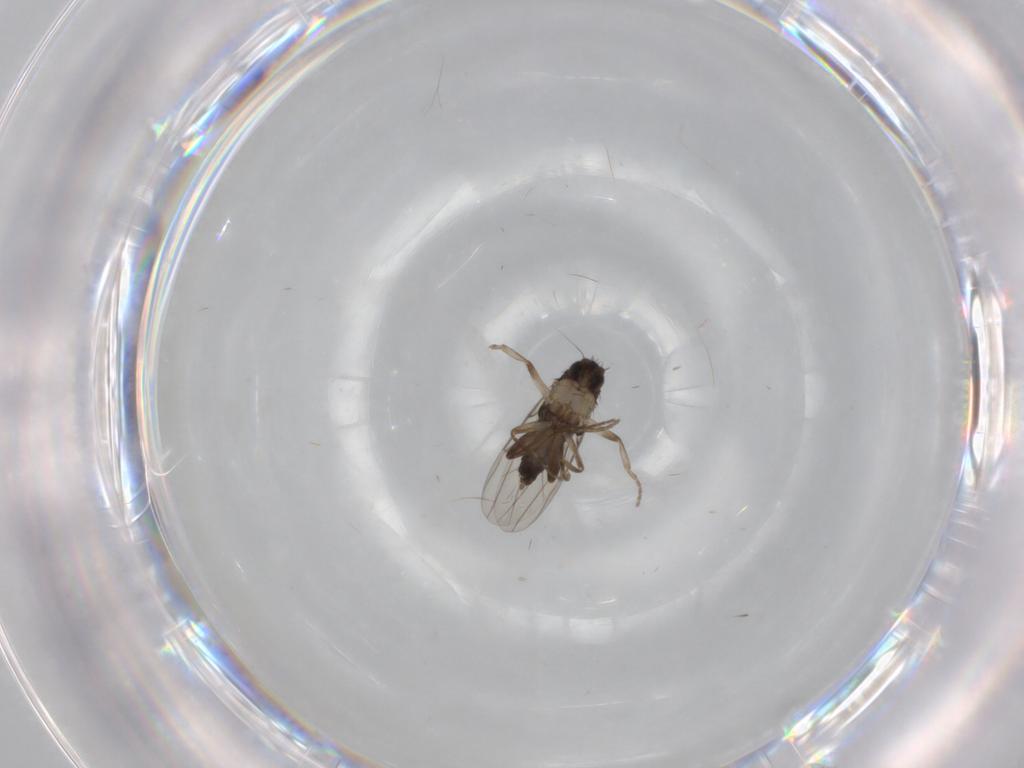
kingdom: Animalia
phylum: Arthropoda
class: Insecta
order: Diptera
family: Phoridae
